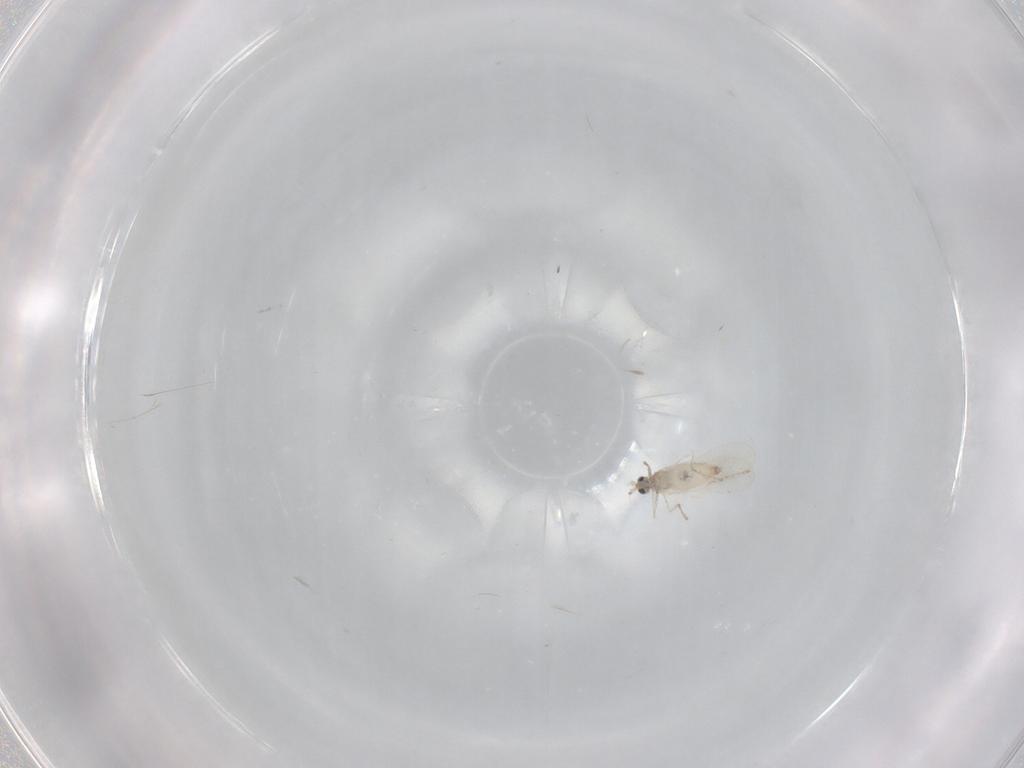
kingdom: Animalia
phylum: Arthropoda
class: Insecta
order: Diptera
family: Cecidomyiidae
